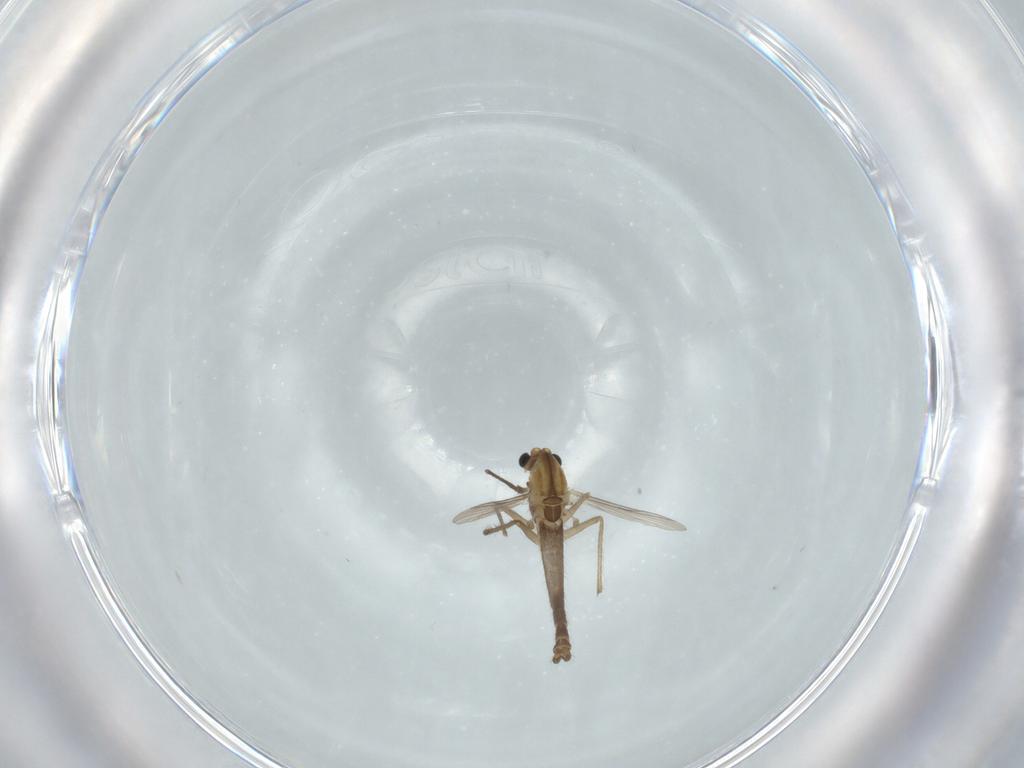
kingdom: Animalia
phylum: Arthropoda
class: Insecta
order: Diptera
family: Chironomidae
